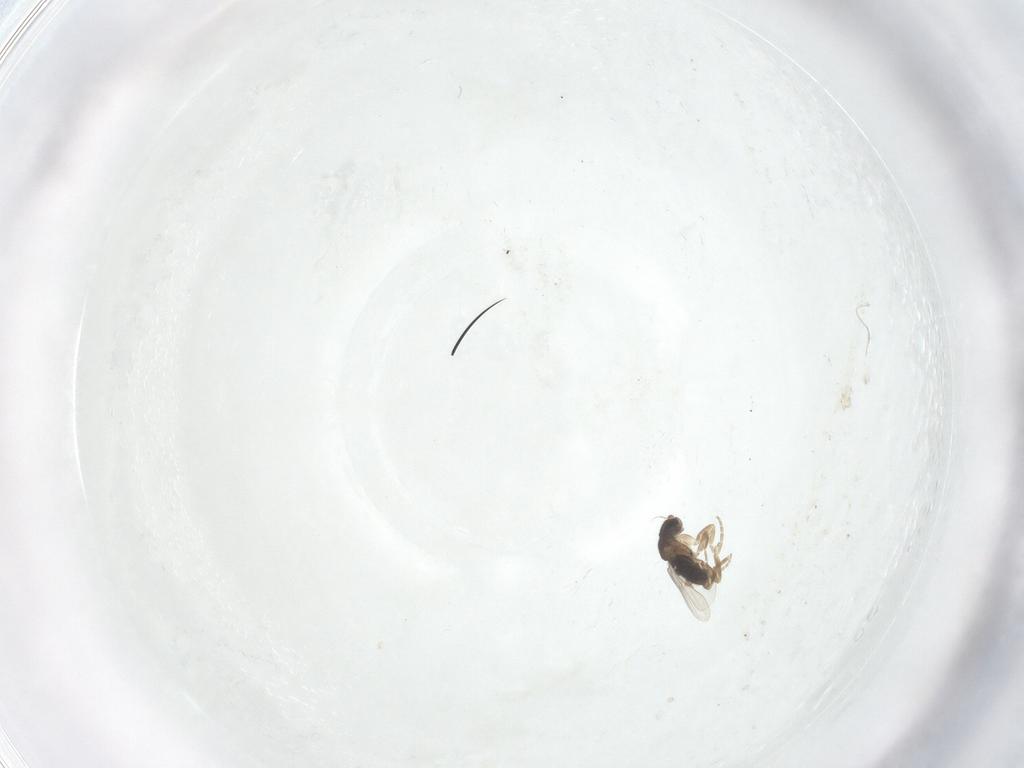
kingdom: Animalia
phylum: Arthropoda
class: Insecta
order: Diptera
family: Phoridae
